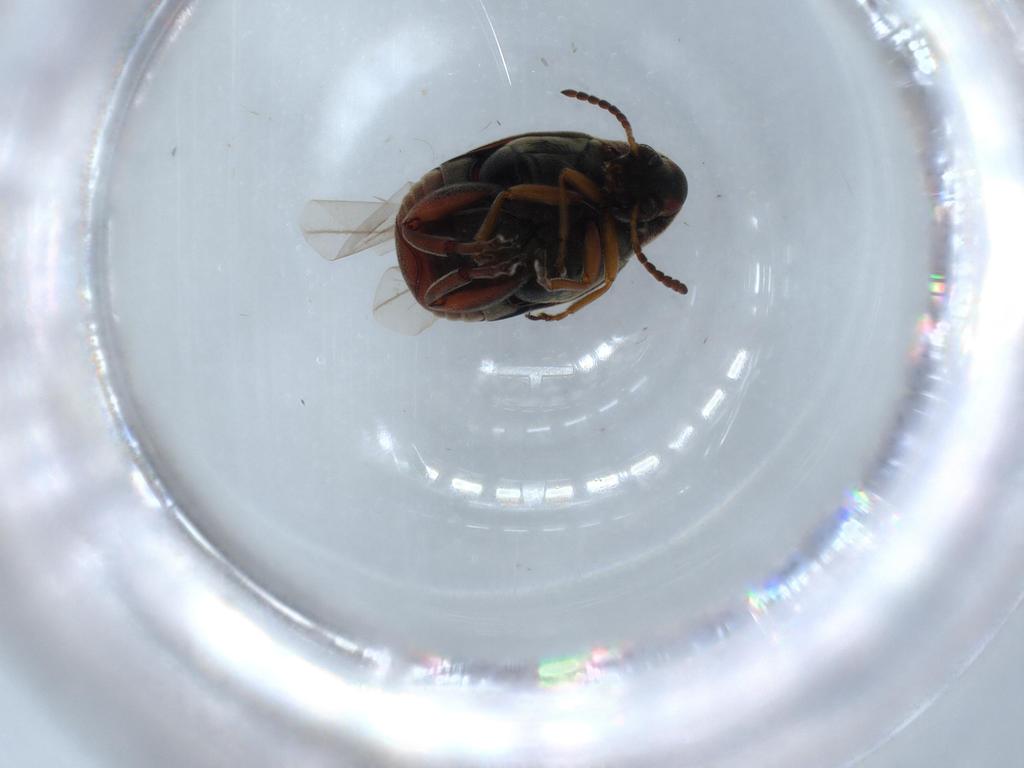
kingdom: Animalia
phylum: Arthropoda
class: Insecta
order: Coleoptera
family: Chrysomelidae
